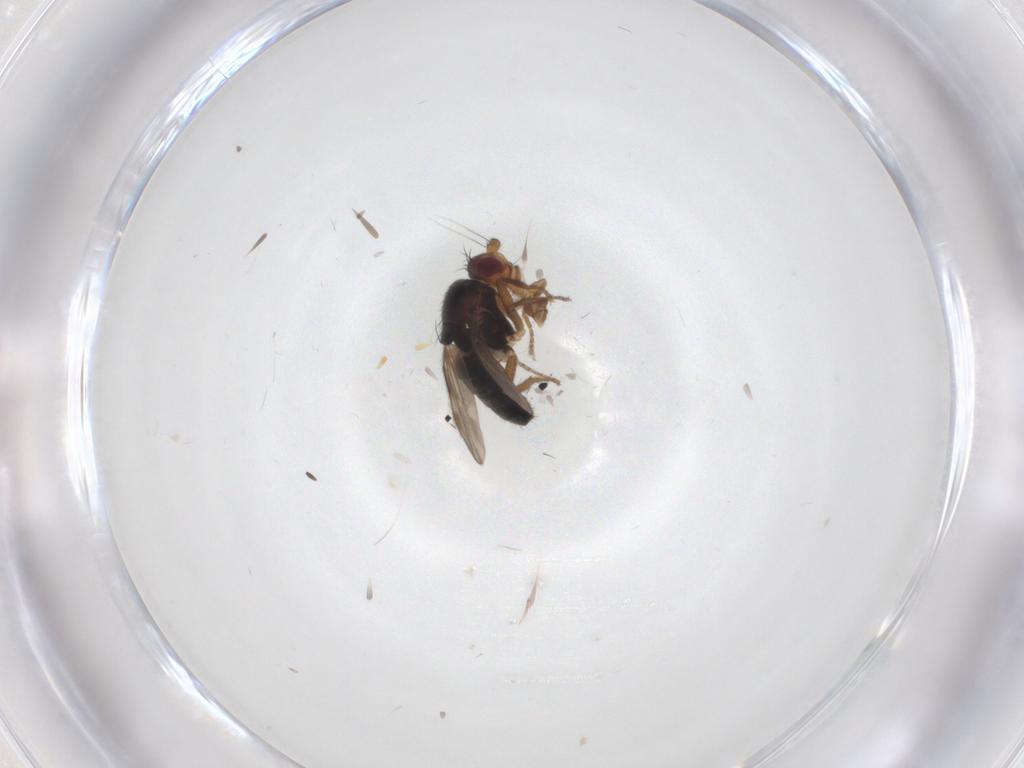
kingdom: Animalia
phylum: Arthropoda
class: Insecta
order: Diptera
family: Sphaeroceridae
